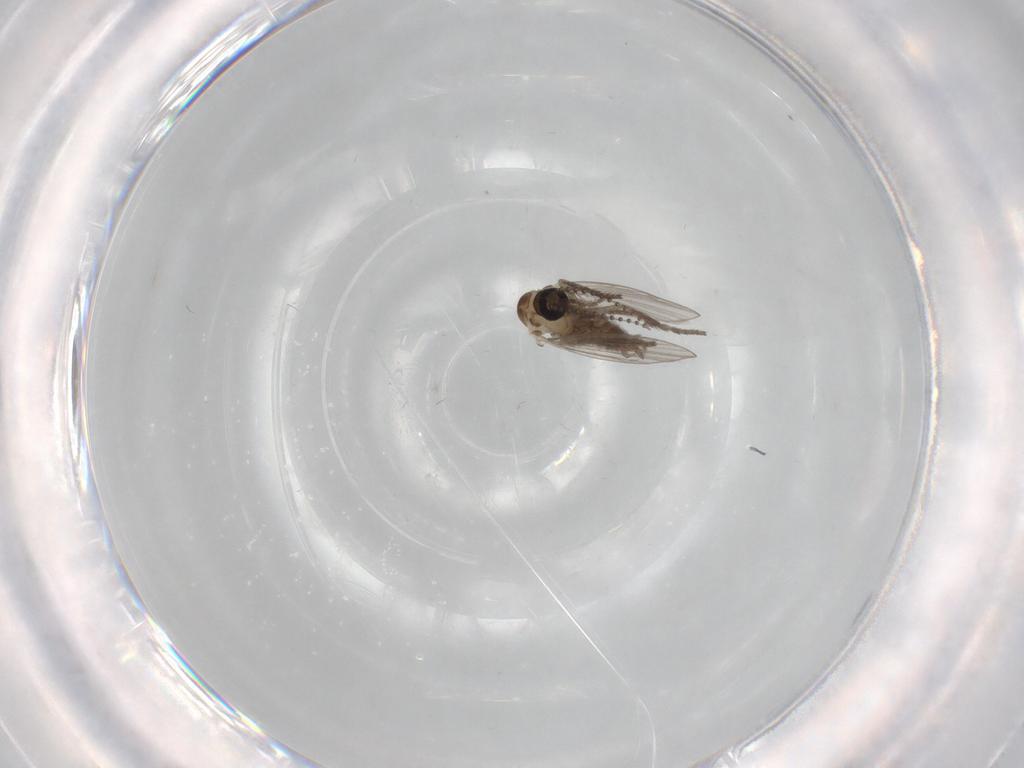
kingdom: Animalia
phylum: Arthropoda
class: Insecta
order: Diptera
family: Psychodidae
